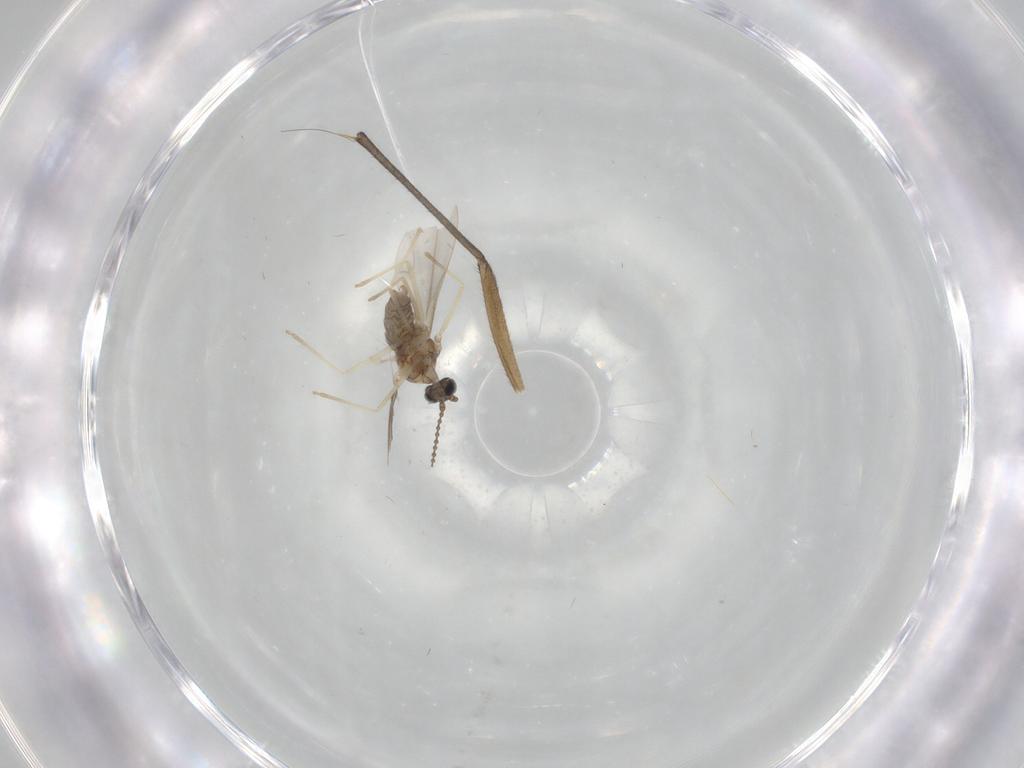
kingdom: Animalia
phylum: Arthropoda
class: Insecta
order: Diptera
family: Cecidomyiidae
